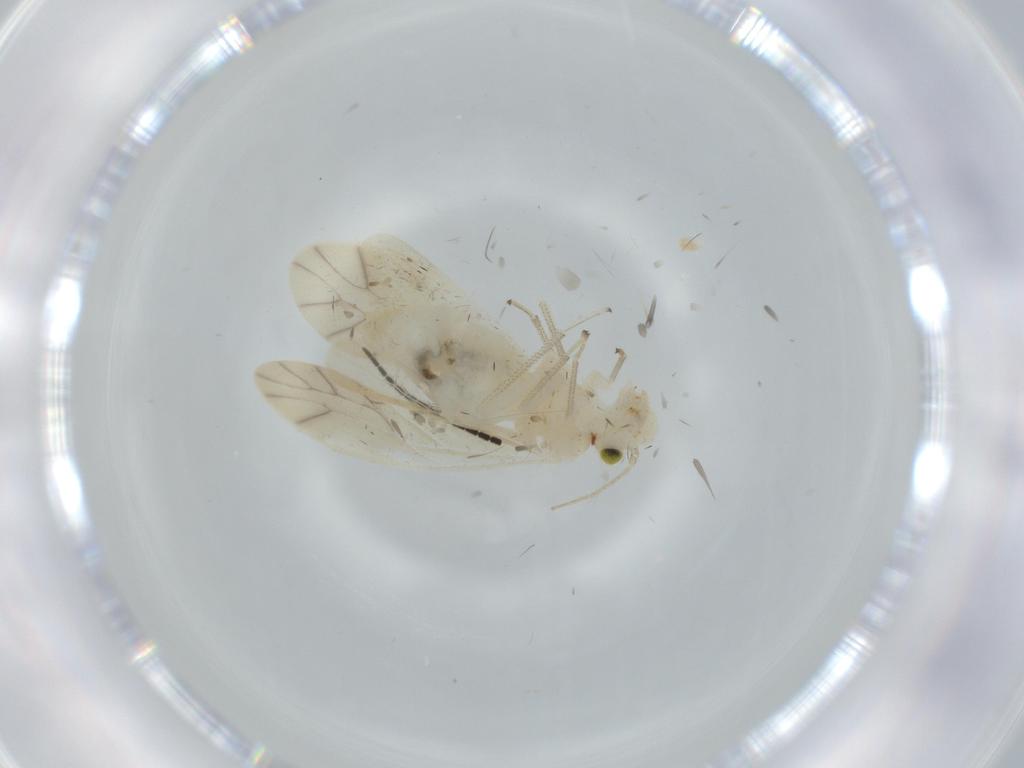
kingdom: Animalia
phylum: Arthropoda
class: Insecta
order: Psocodea
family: Caeciliusidae
